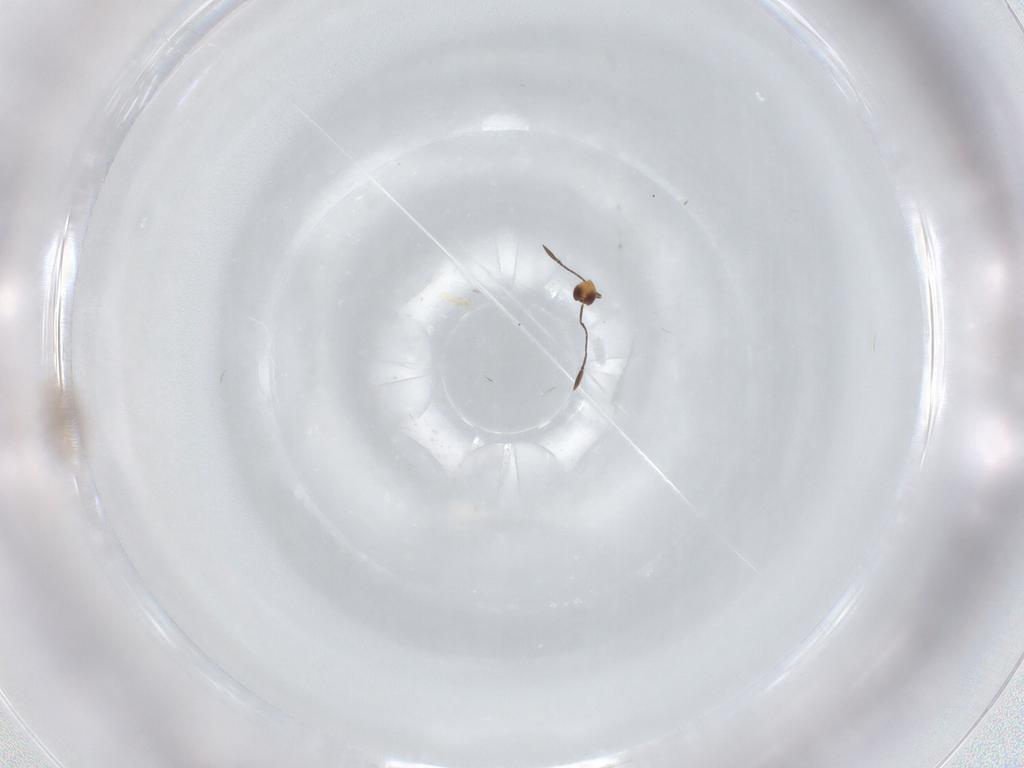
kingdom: Animalia
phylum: Arthropoda
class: Insecta
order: Hymenoptera
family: Mymaridae
